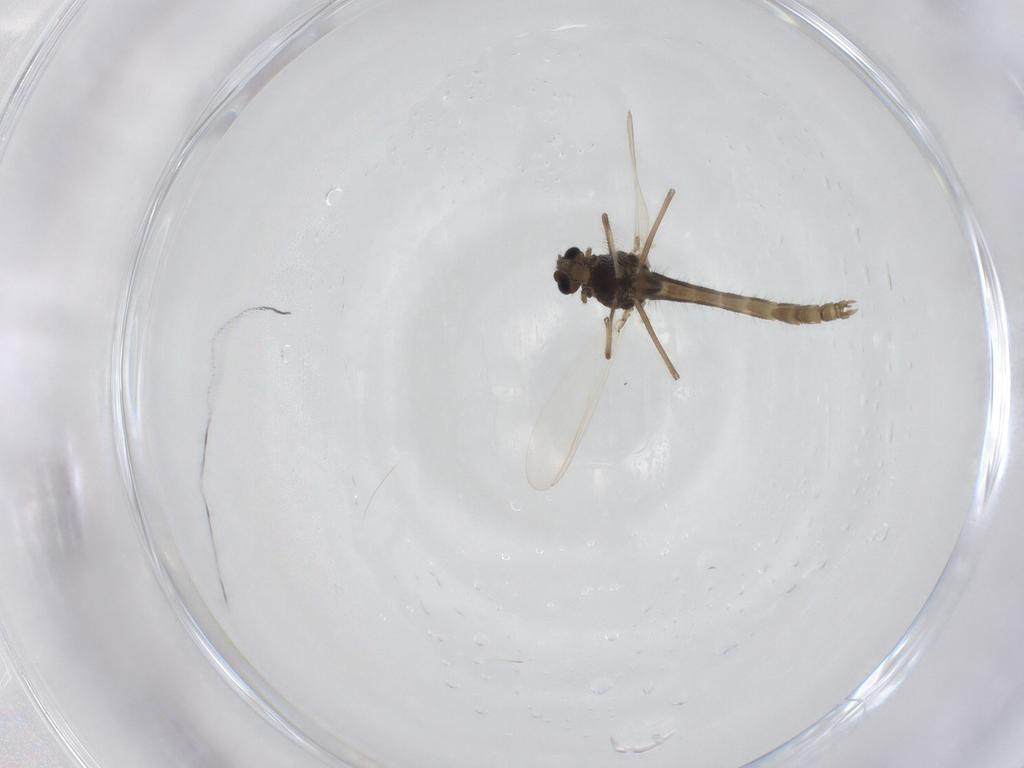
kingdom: Animalia
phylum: Arthropoda
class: Insecta
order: Diptera
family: Chironomidae
